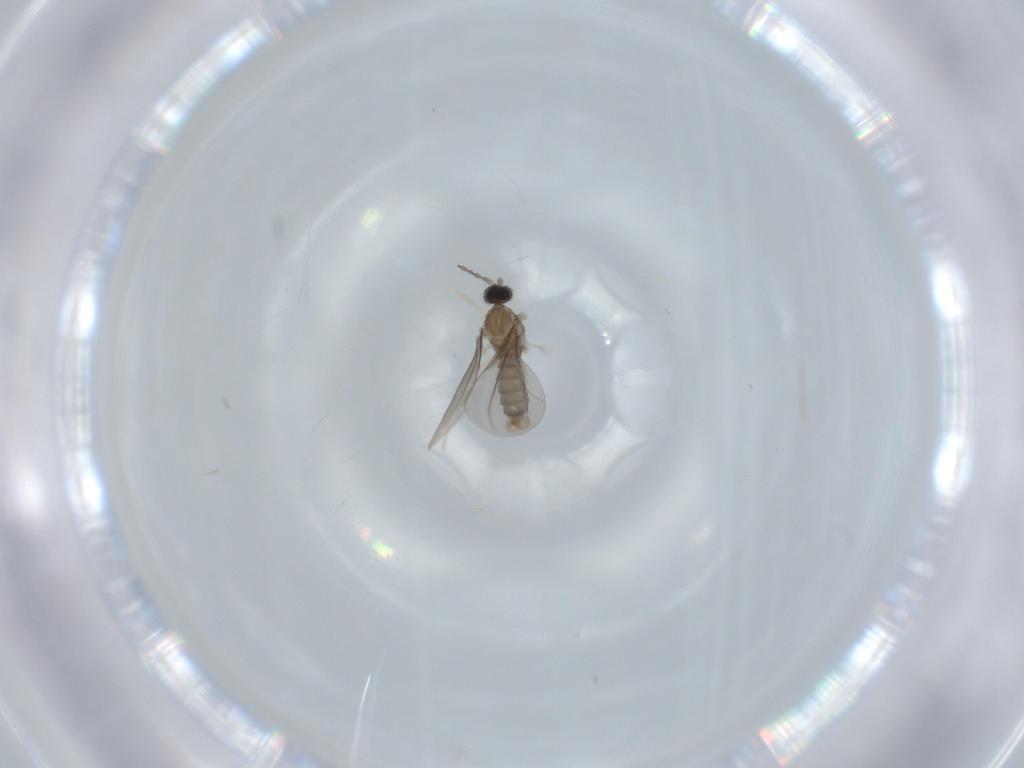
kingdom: Animalia
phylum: Arthropoda
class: Insecta
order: Diptera
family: Cecidomyiidae
